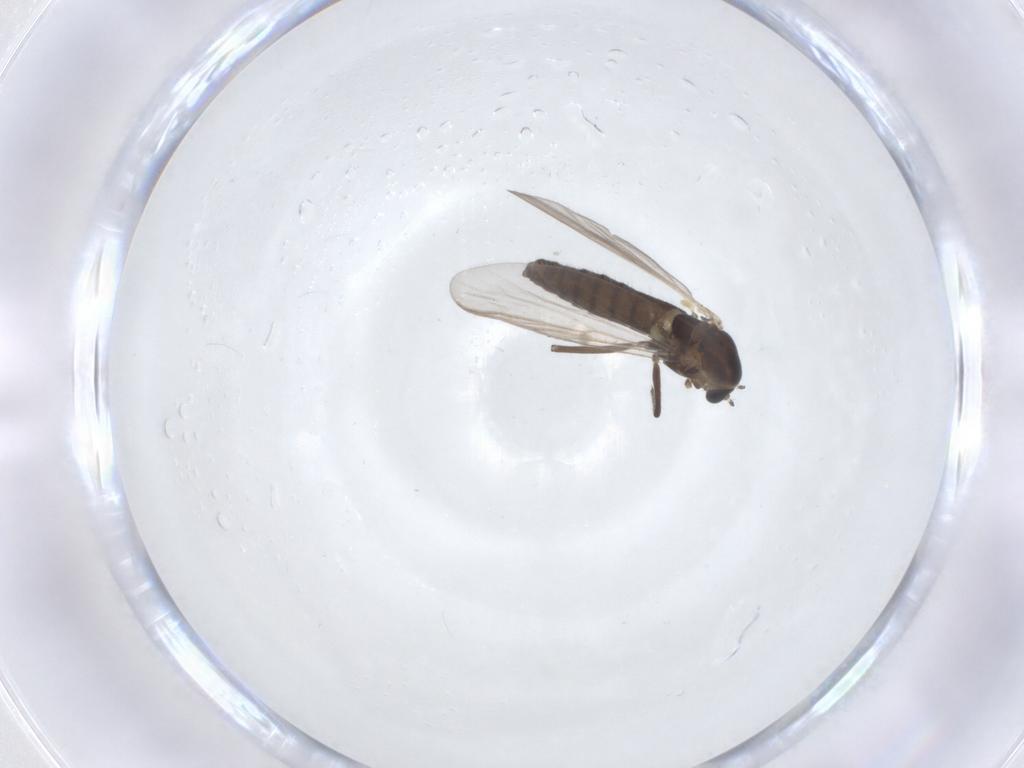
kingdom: Animalia
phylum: Arthropoda
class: Insecta
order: Diptera
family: Chironomidae
